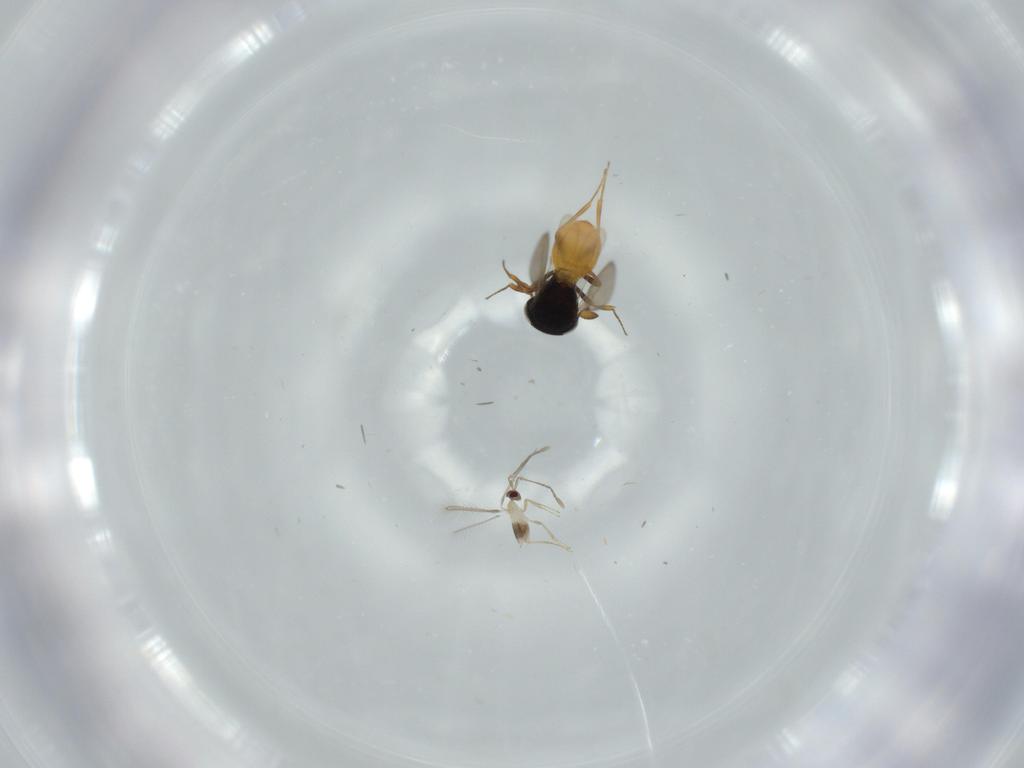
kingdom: Animalia
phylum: Arthropoda
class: Insecta
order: Hymenoptera
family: Scelionidae
